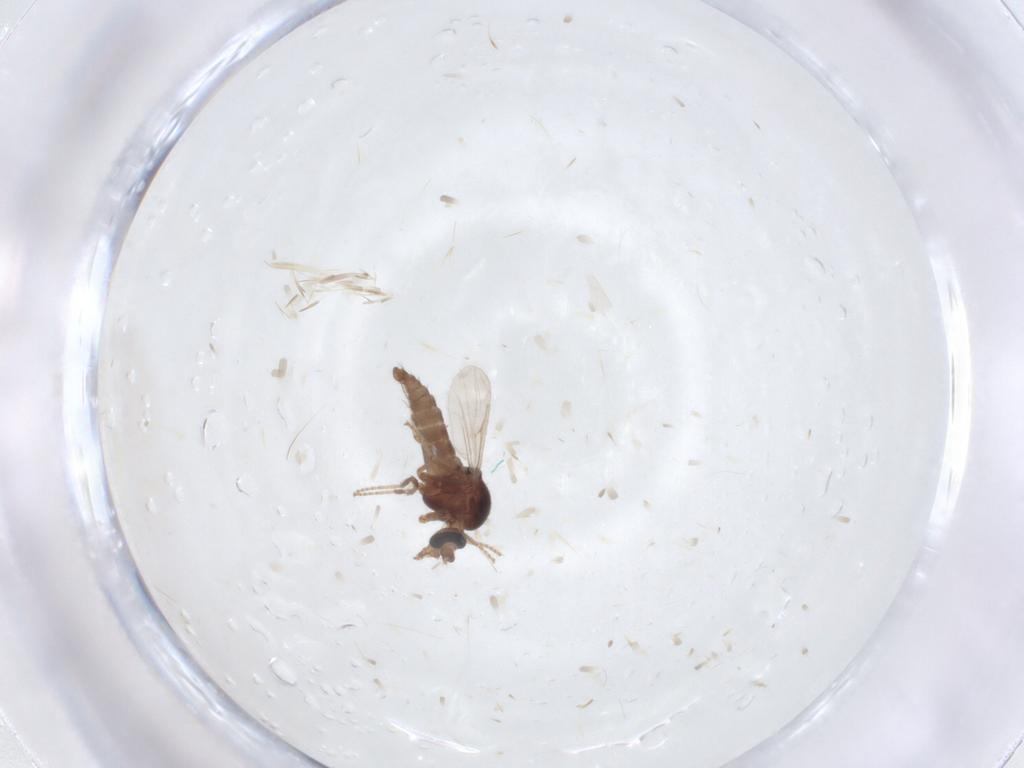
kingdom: Animalia
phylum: Arthropoda
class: Insecta
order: Diptera
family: Ceratopogonidae
